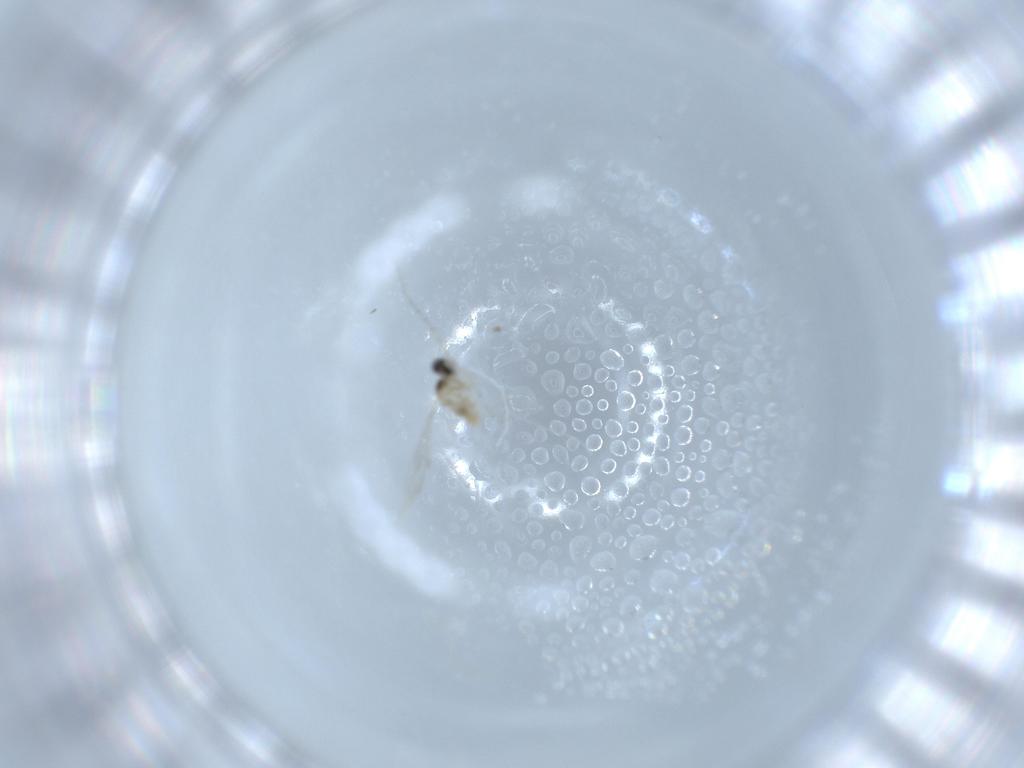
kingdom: Animalia
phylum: Arthropoda
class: Insecta
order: Diptera
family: Cecidomyiidae
